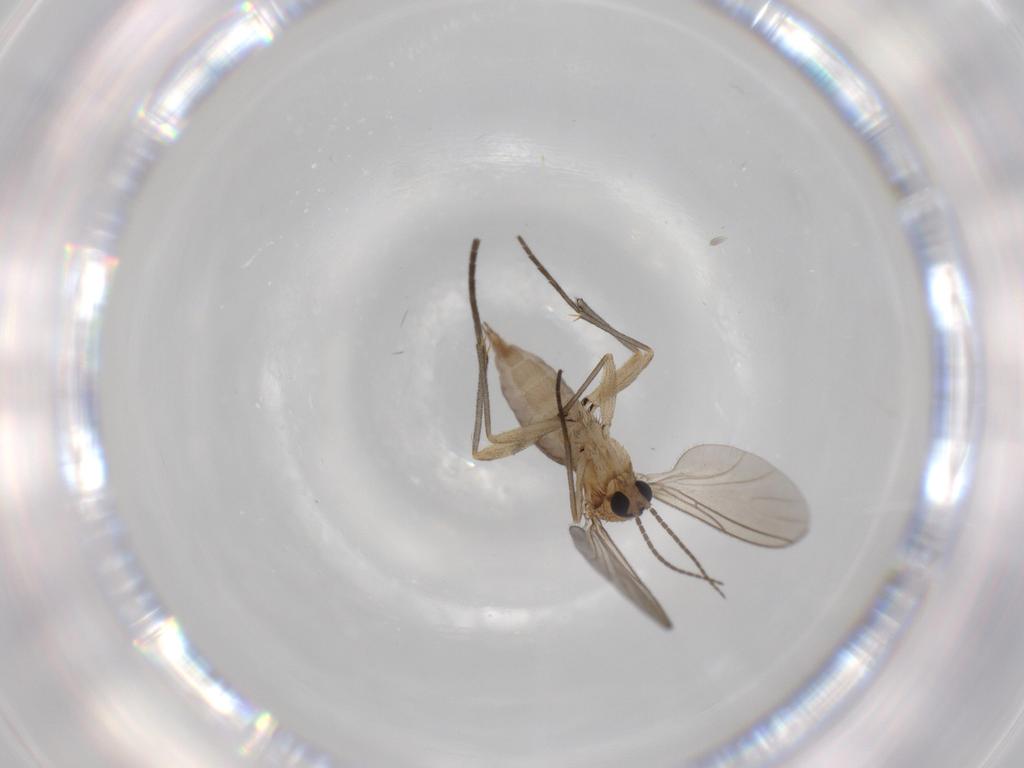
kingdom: Animalia
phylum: Arthropoda
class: Insecta
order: Diptera
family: Sciaridae
